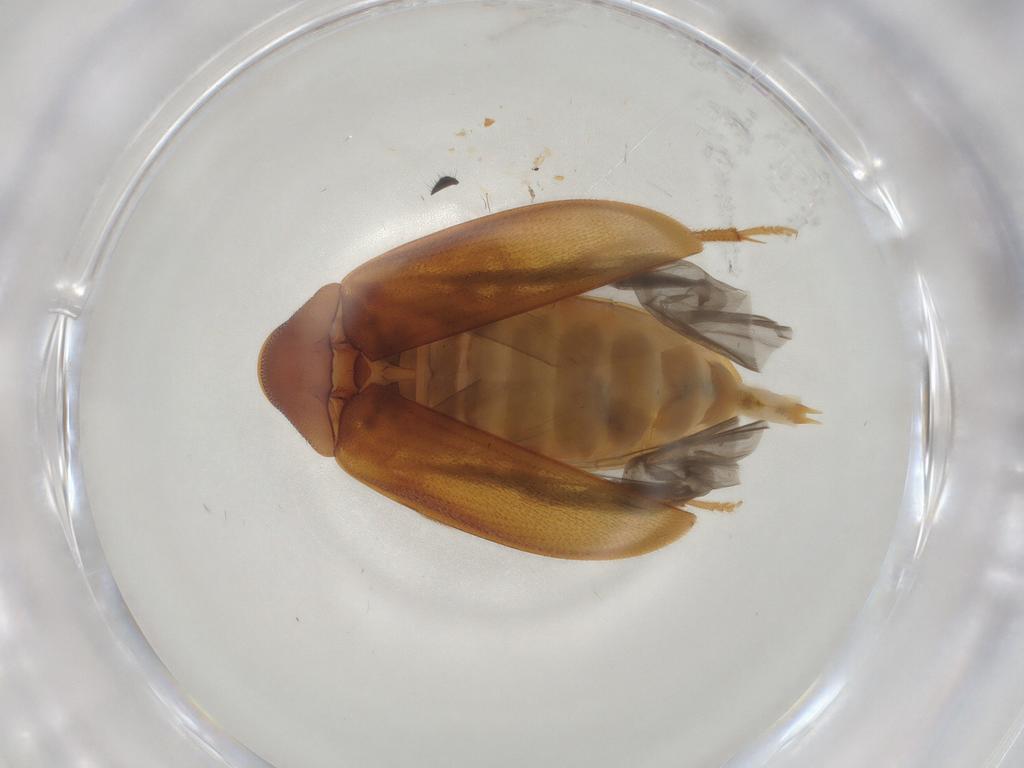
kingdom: Animalia
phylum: Arthropoda
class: Insecta
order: Coleoptera
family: Ptilodactylidae
